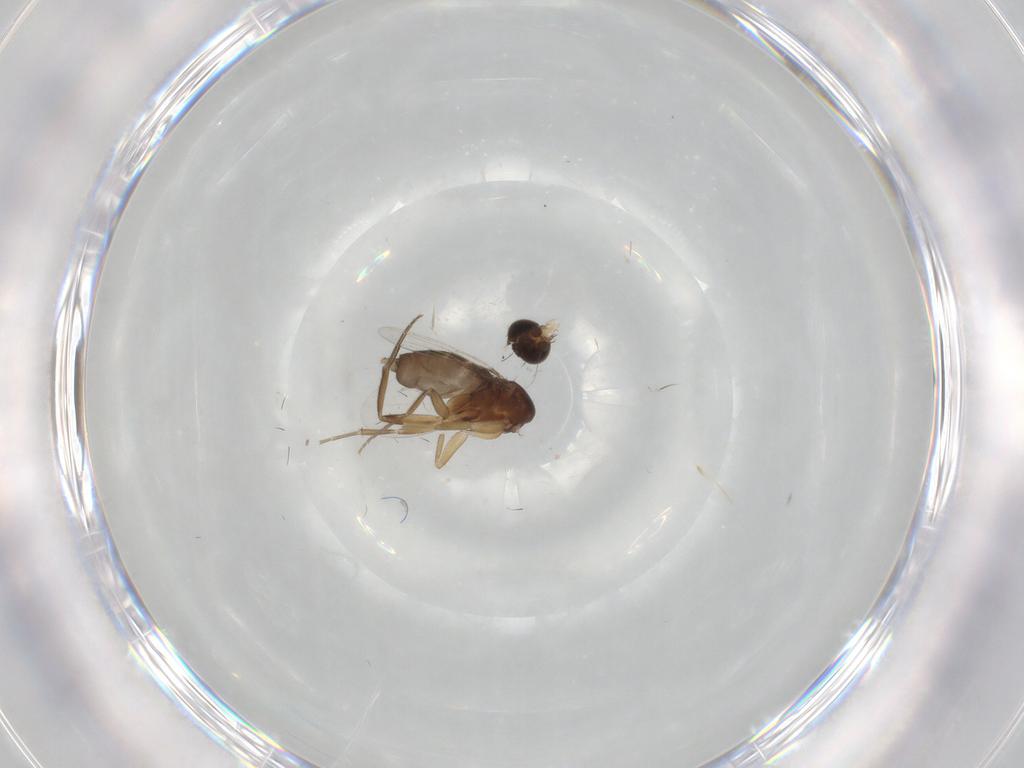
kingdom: Animalia
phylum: Arthropoda
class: Insecta
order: Diptera
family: Phoridae
